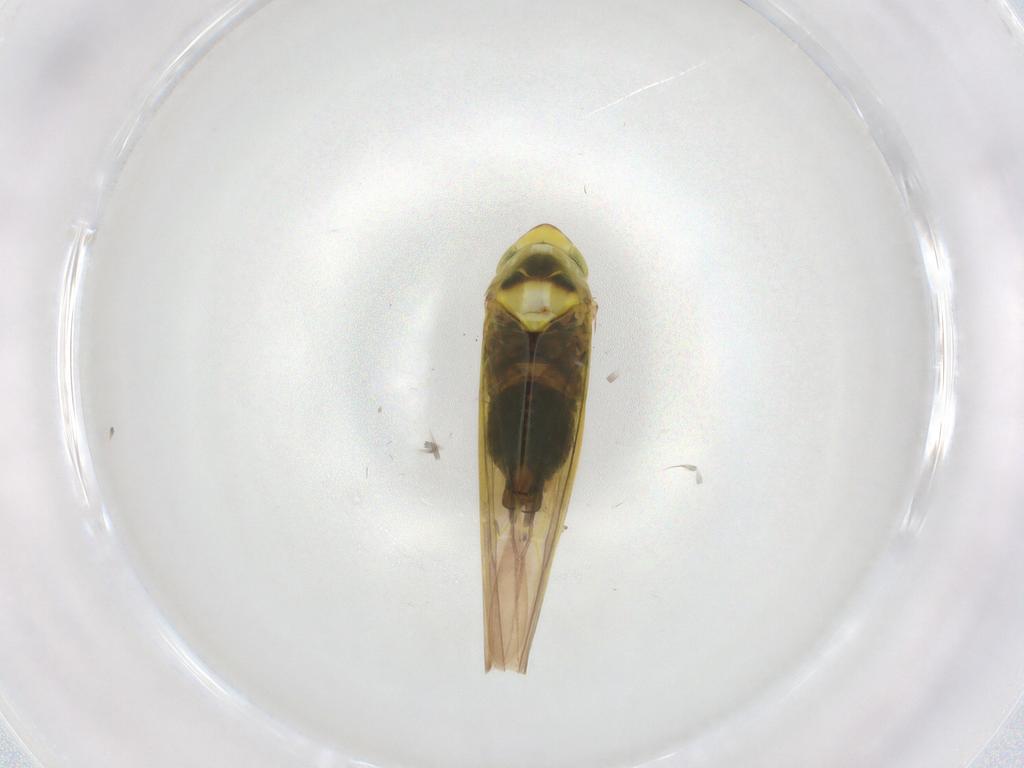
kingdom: Animalia
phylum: Arthropoda
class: Insecta
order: Hemiptera
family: Cicadellidae
